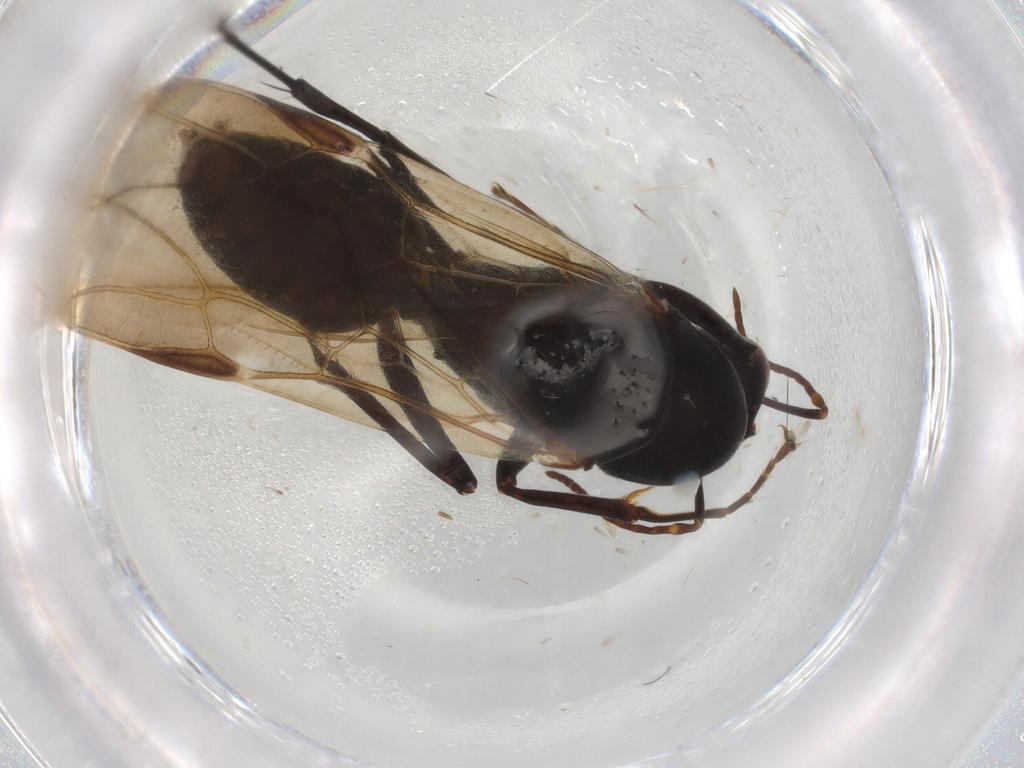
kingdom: Animalia
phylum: Arthropoda
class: Insecta
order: Hymenoptera
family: Formicidae
